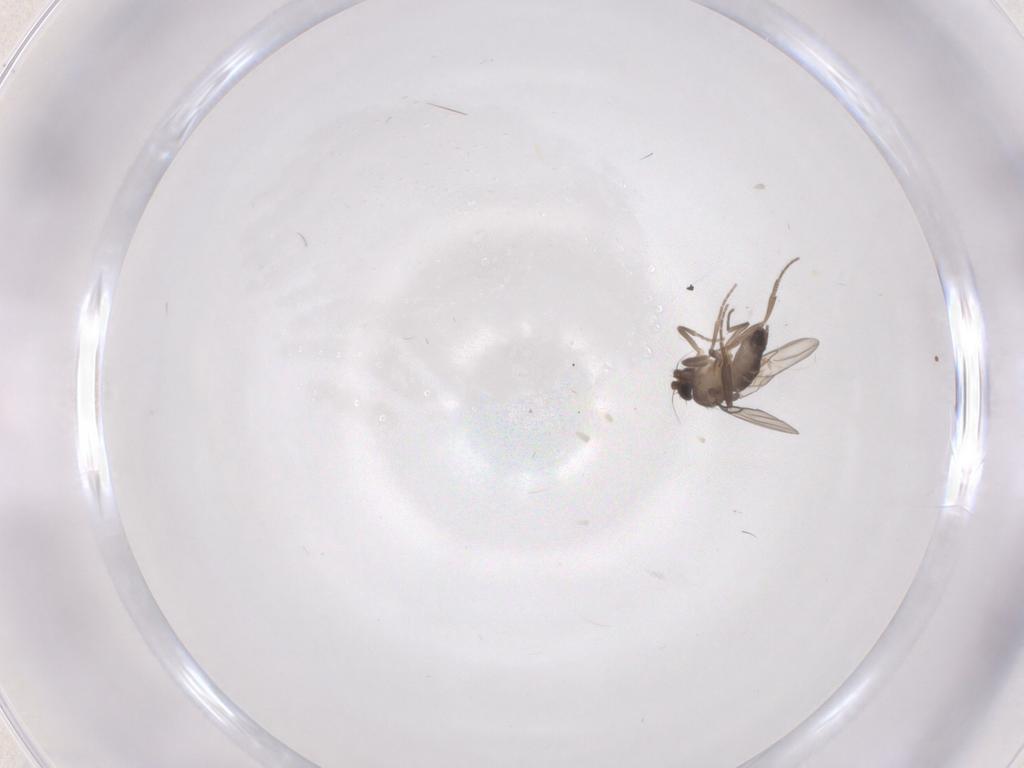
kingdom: Animalia
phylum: Arthropoda
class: Insecta
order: Diptera
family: Phoridae
